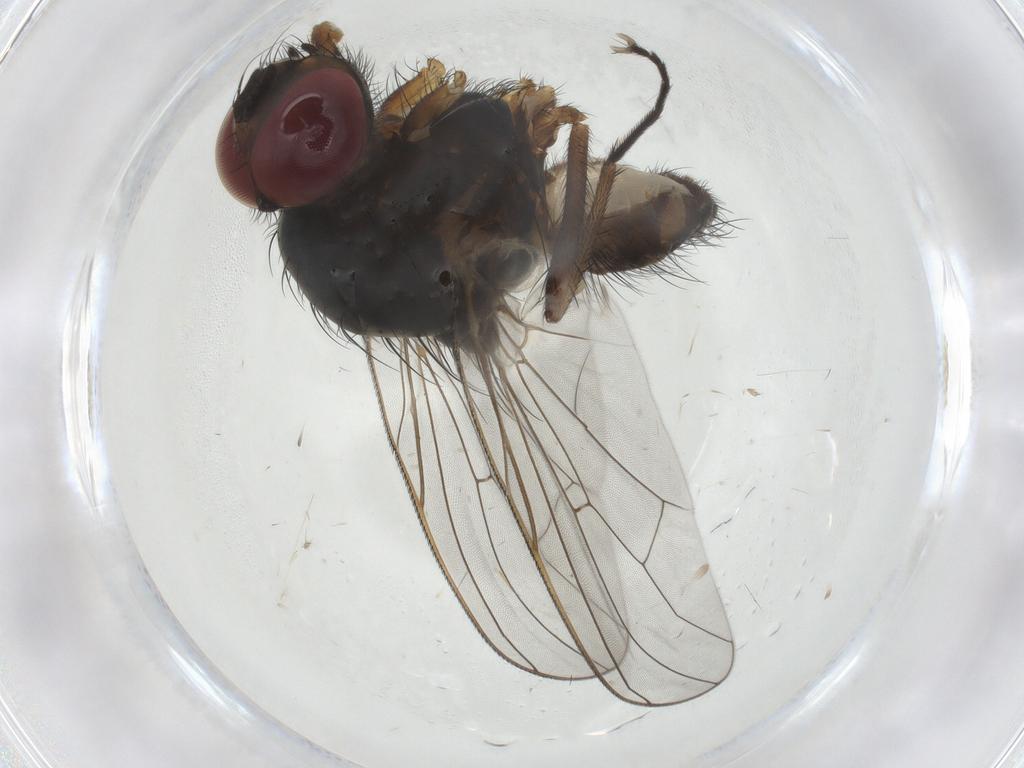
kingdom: Animalia
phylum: Arthropoda
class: Insecta
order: Diptera
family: Anthomyiidae
